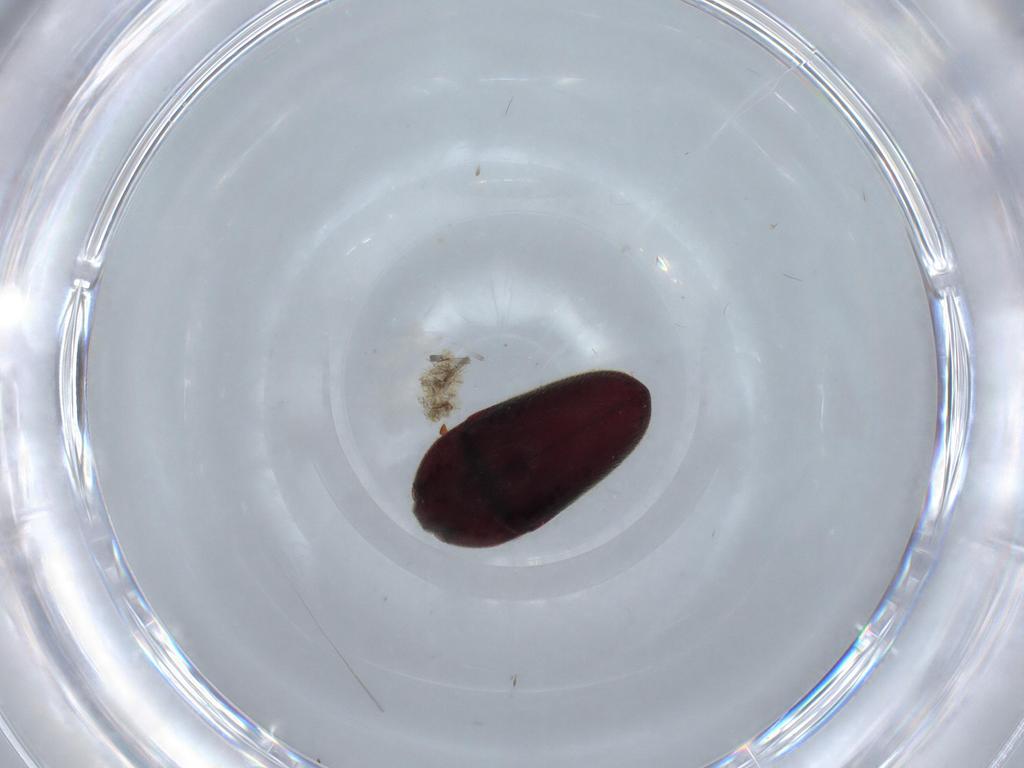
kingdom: Animalia
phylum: Arthropoda
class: Insecta
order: Coleoptera
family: Throscidae
